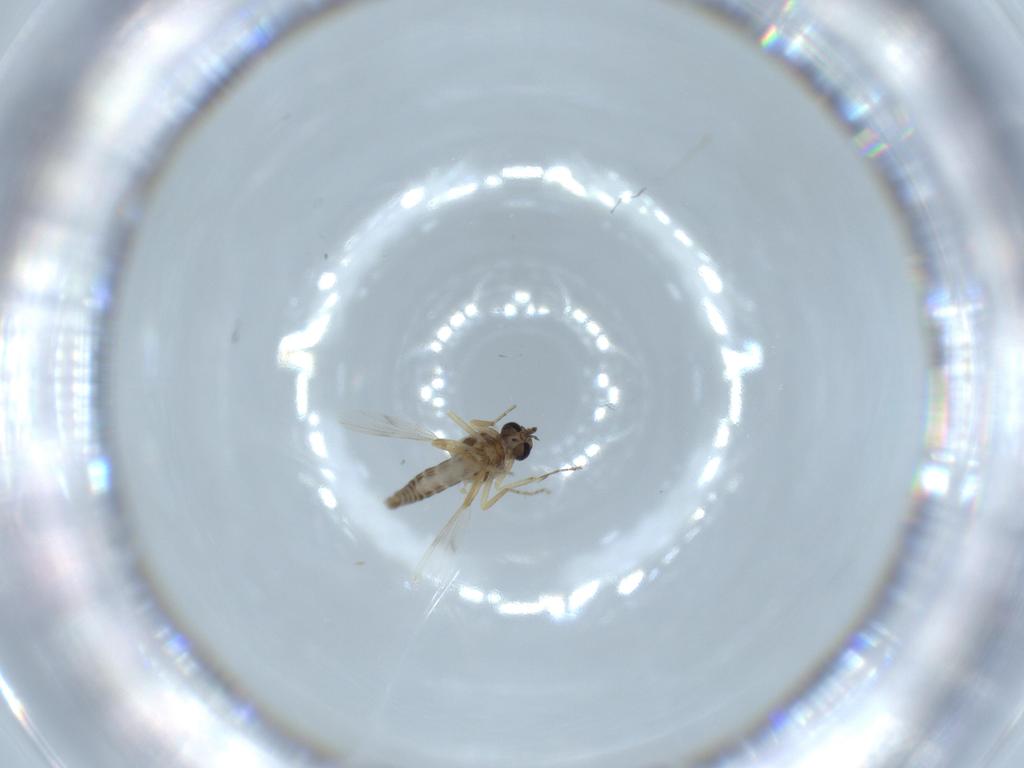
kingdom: Animalia
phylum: Arthropoda
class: Insecta
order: Diptera
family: Ceratopogonidae
